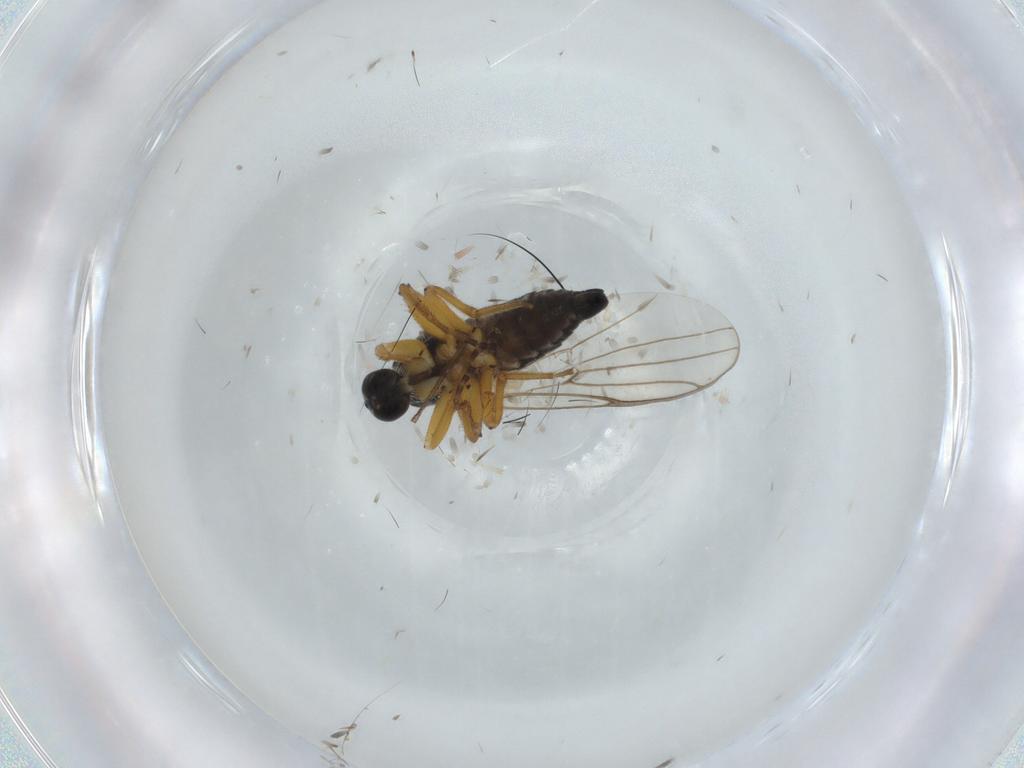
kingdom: Animalia
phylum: Arthropoda
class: Insecta
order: Diptera
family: Hybotidae
